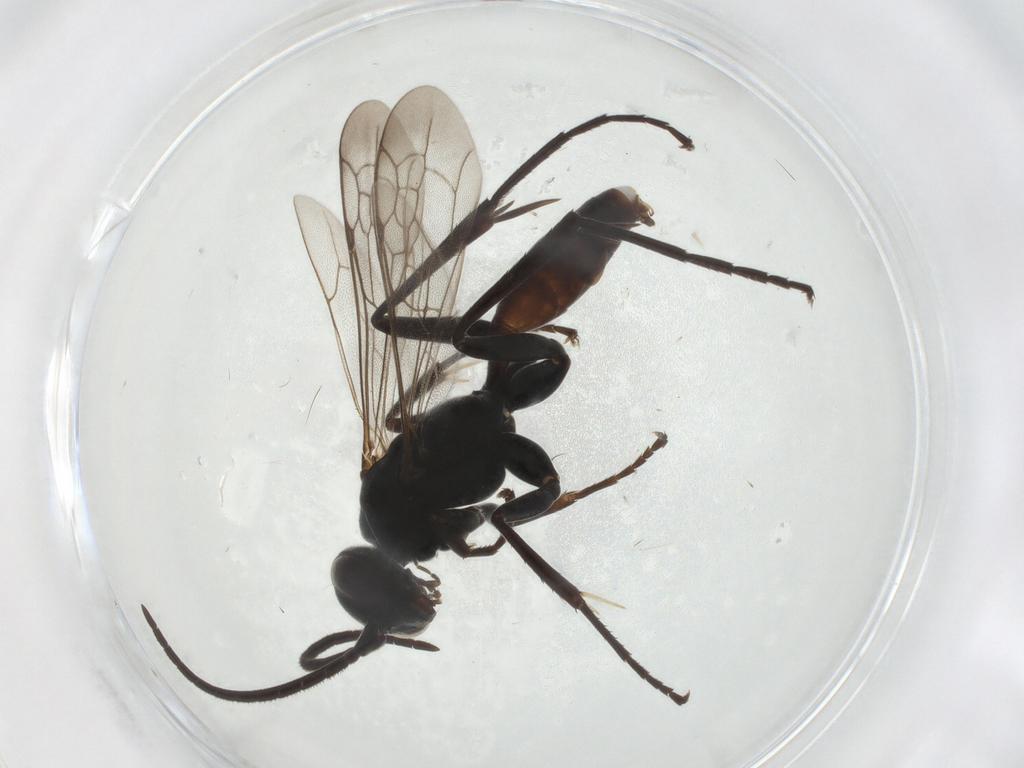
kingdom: Animalia
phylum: Arthropoda
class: Insecta
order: Hymenoptera
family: Pompilidae
